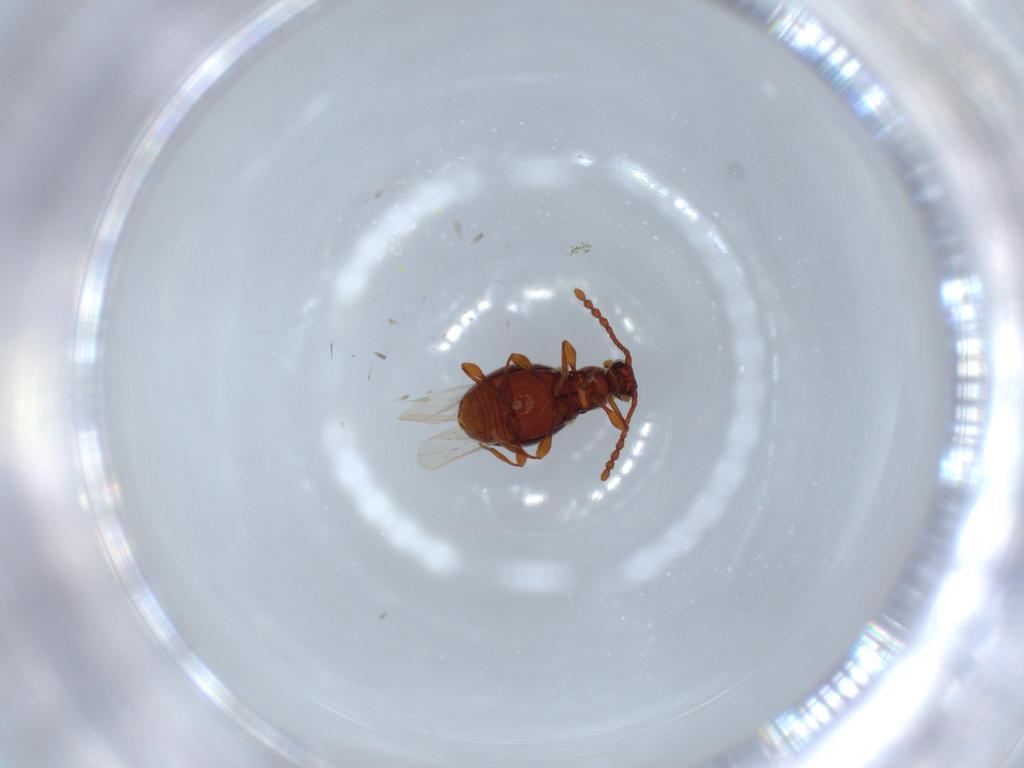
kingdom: Animalia
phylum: Arthropoda
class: Insecta
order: Coleoptera
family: Staphylinidae
